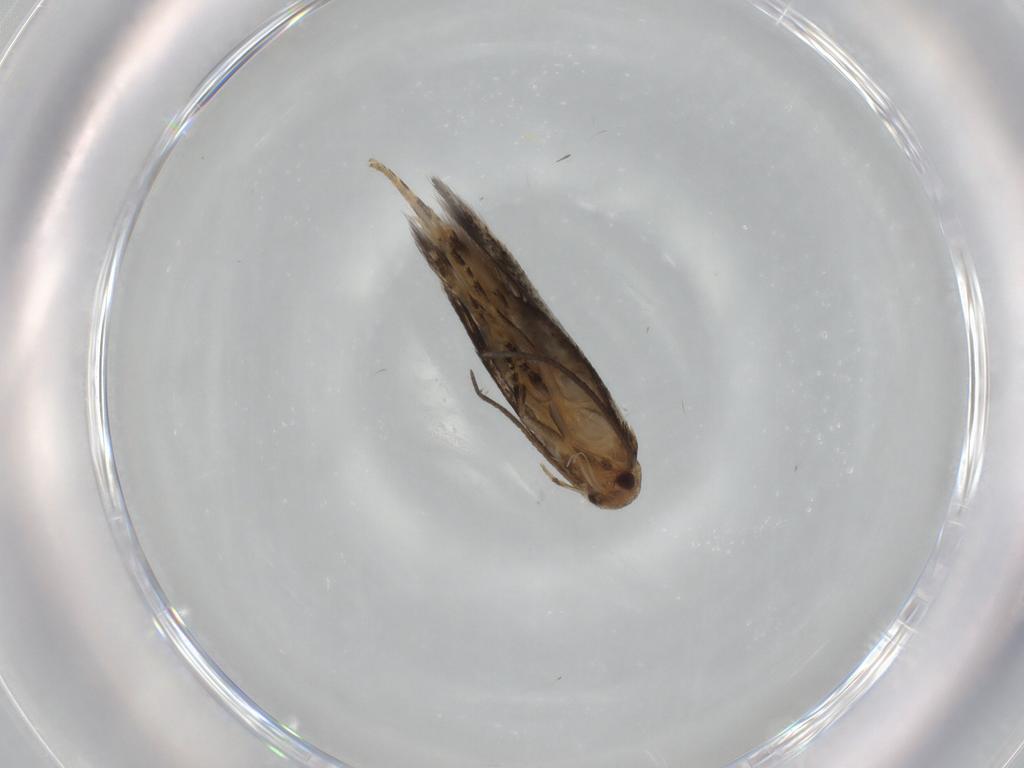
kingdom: Animalia
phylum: Arthropoda
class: Insecta
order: Lepidoptera
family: Elachistidae
